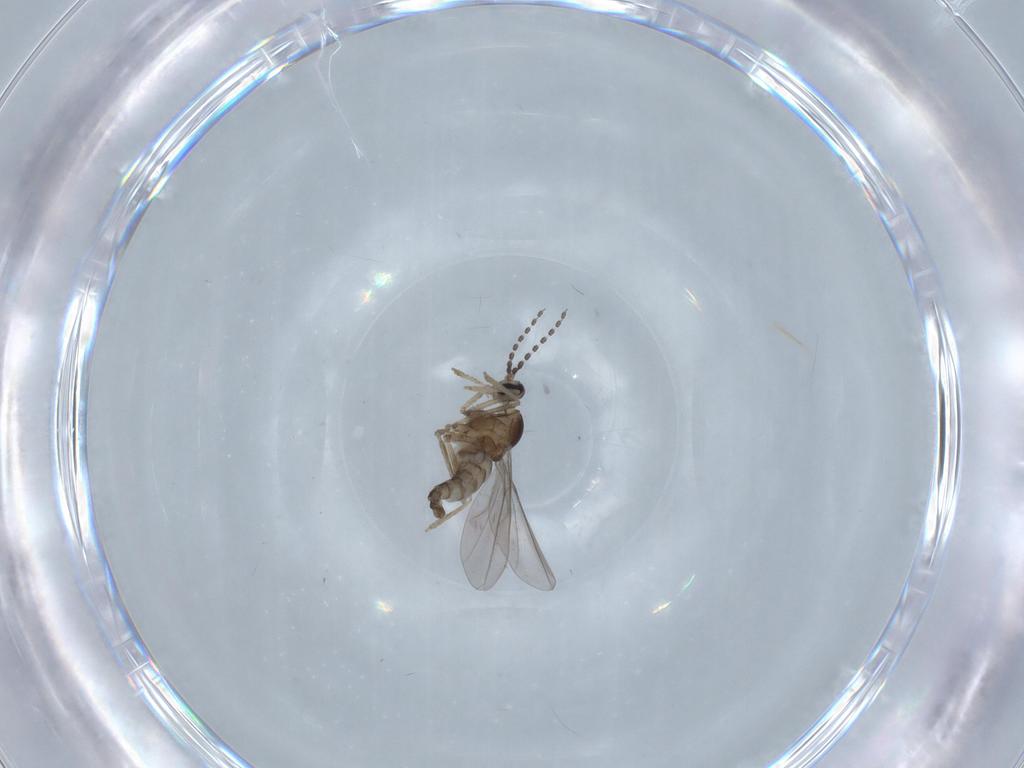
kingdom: Animalia
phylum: Arthropoda
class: Insecta
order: Diptera
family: Cecidomyiidae
